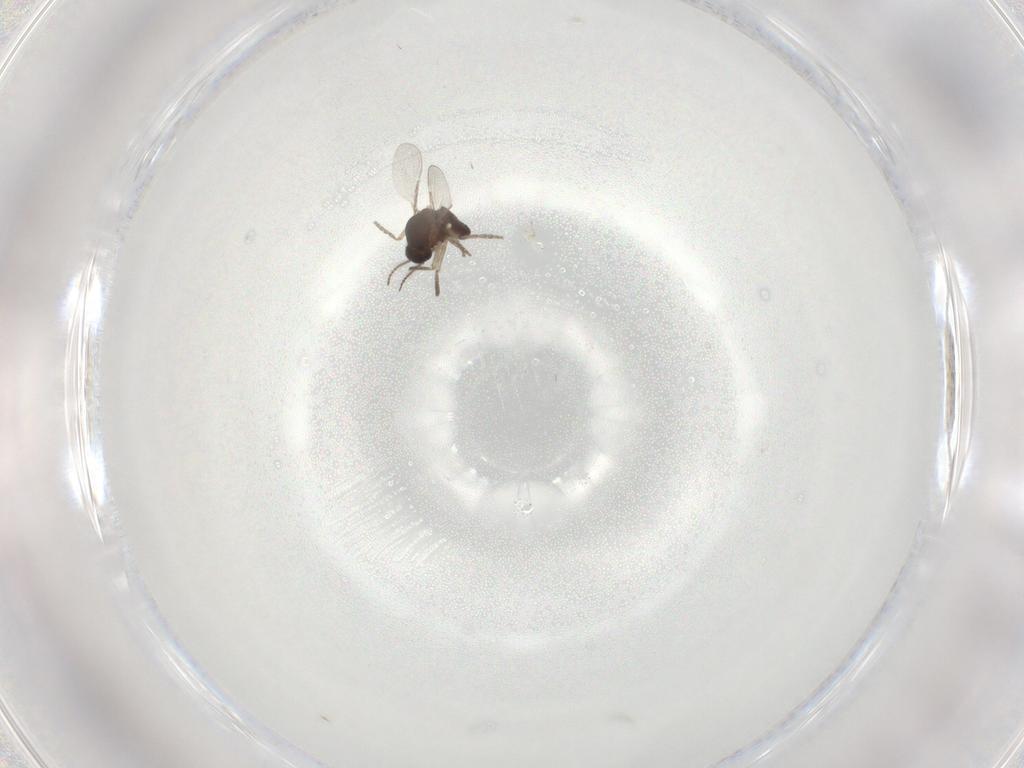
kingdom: Animalia
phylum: Arthropoda
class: Insecta
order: Diptera
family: Ceratopogonidae
